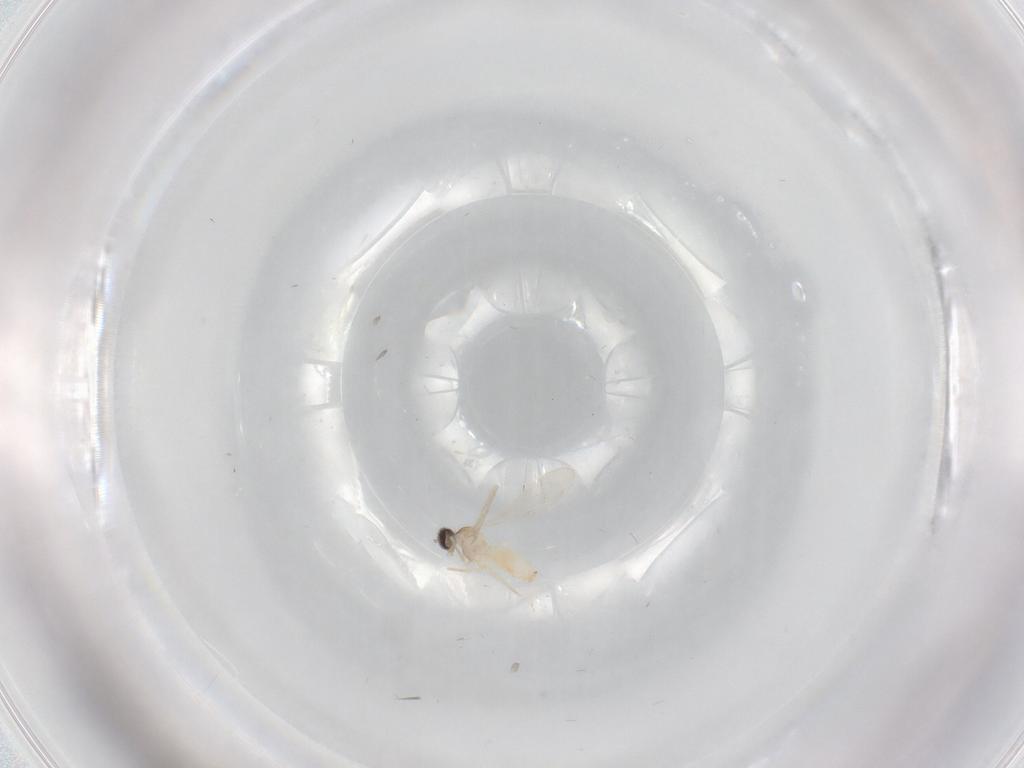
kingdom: Animalia
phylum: Arthropoda
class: Insecta
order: Diptera
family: Cecidomyiidae
